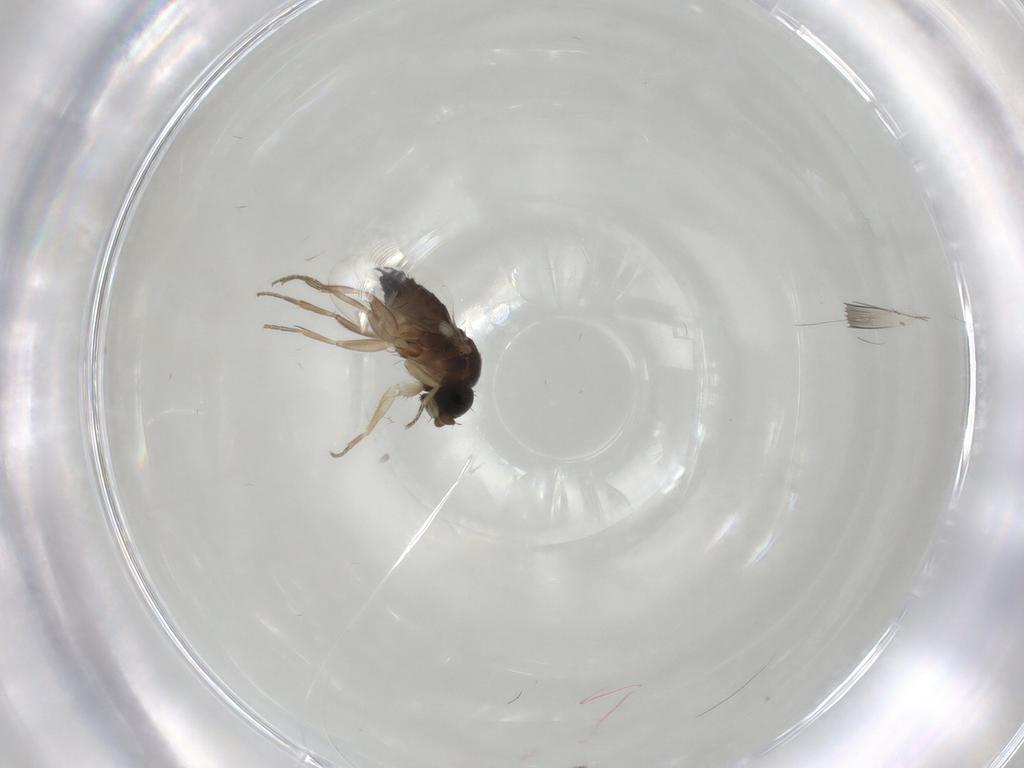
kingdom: Animalia
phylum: Arthropoda
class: Insecta
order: Diptera
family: Phoridae
